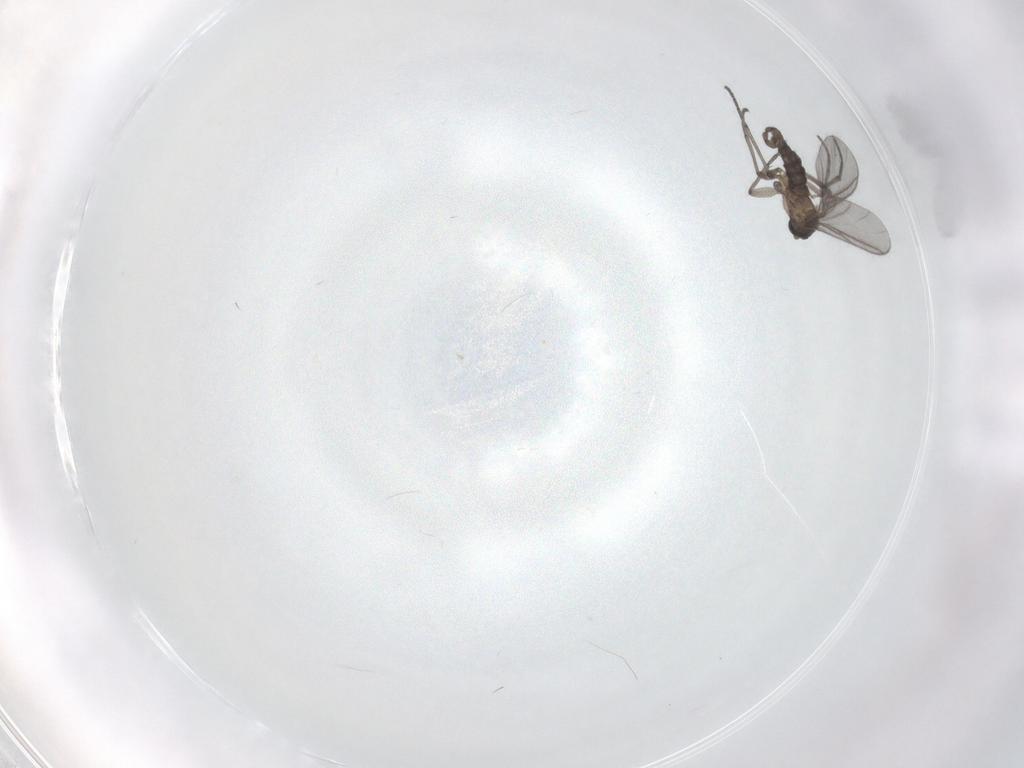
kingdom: Animalia
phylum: Arthropoda
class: Insecta
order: Diptera
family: Sciaridae
